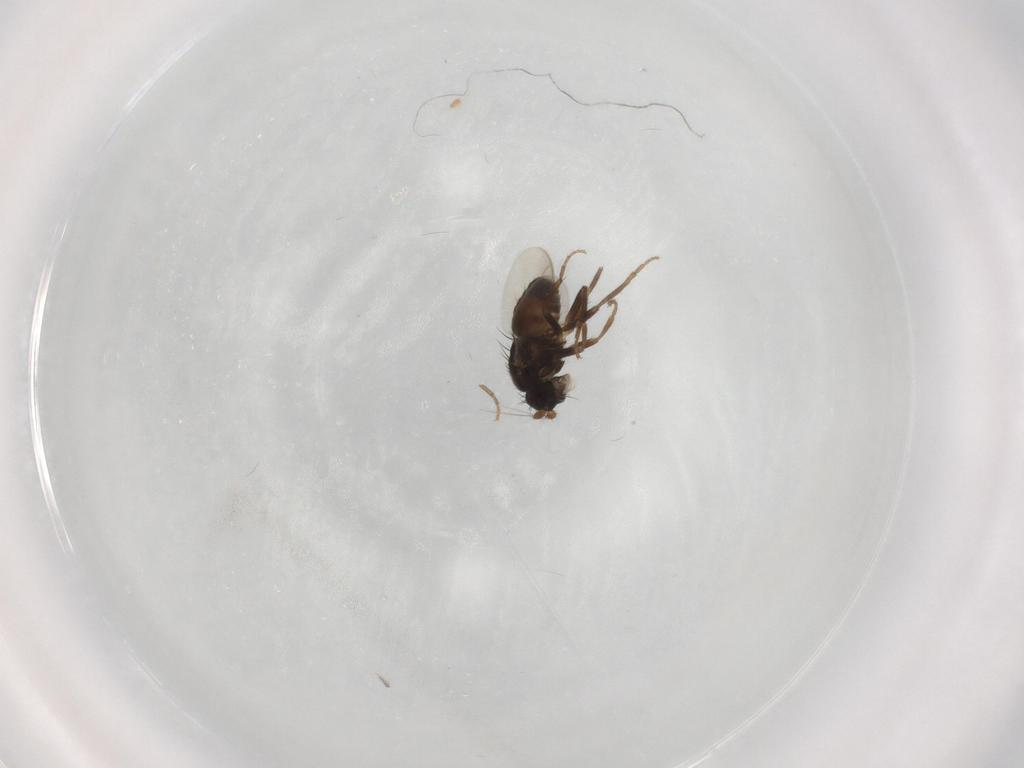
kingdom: Animalia
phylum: Arthropoda
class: Insecta
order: Diptera
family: Sphaeroceridae
